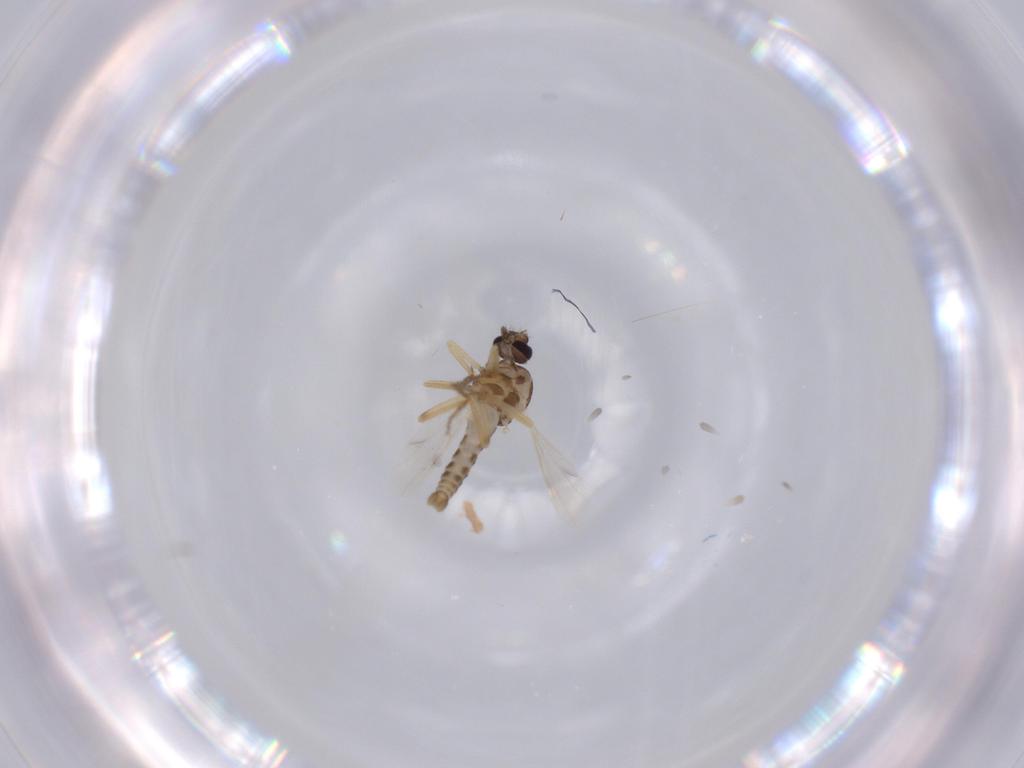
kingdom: Animalia
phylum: Arthropoda
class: Insecta
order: Diptera
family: Ceratopogonidae
